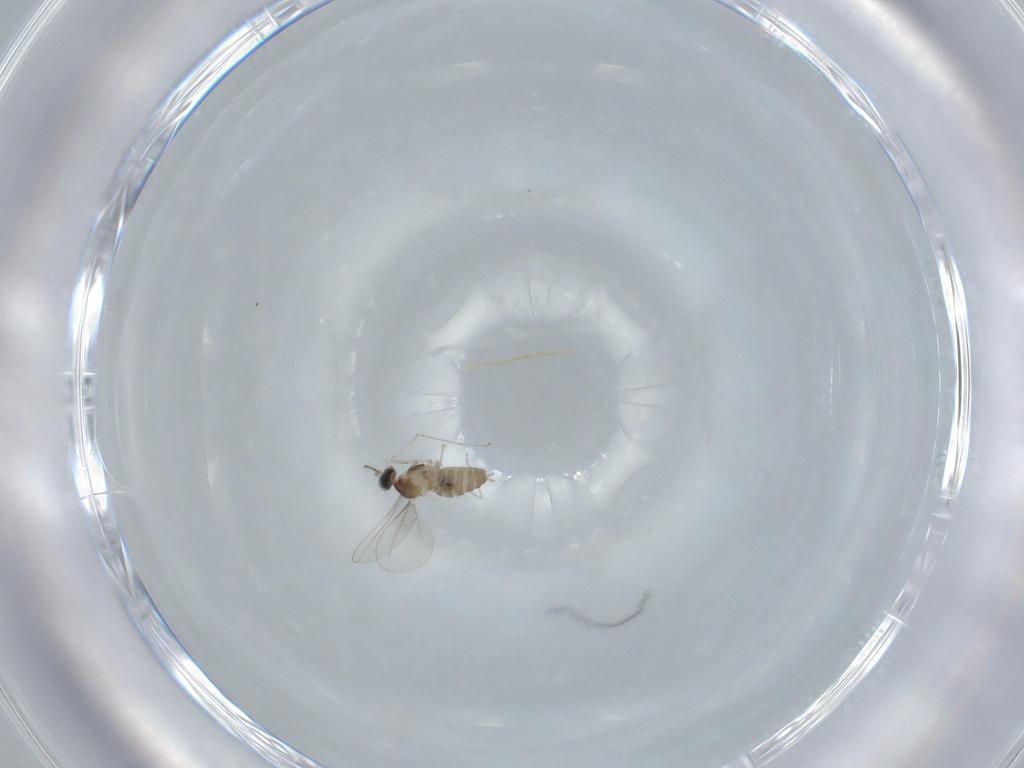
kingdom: Animalia
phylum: Arthropoda
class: Insecta
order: Diptera
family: Cecidomyiidae
